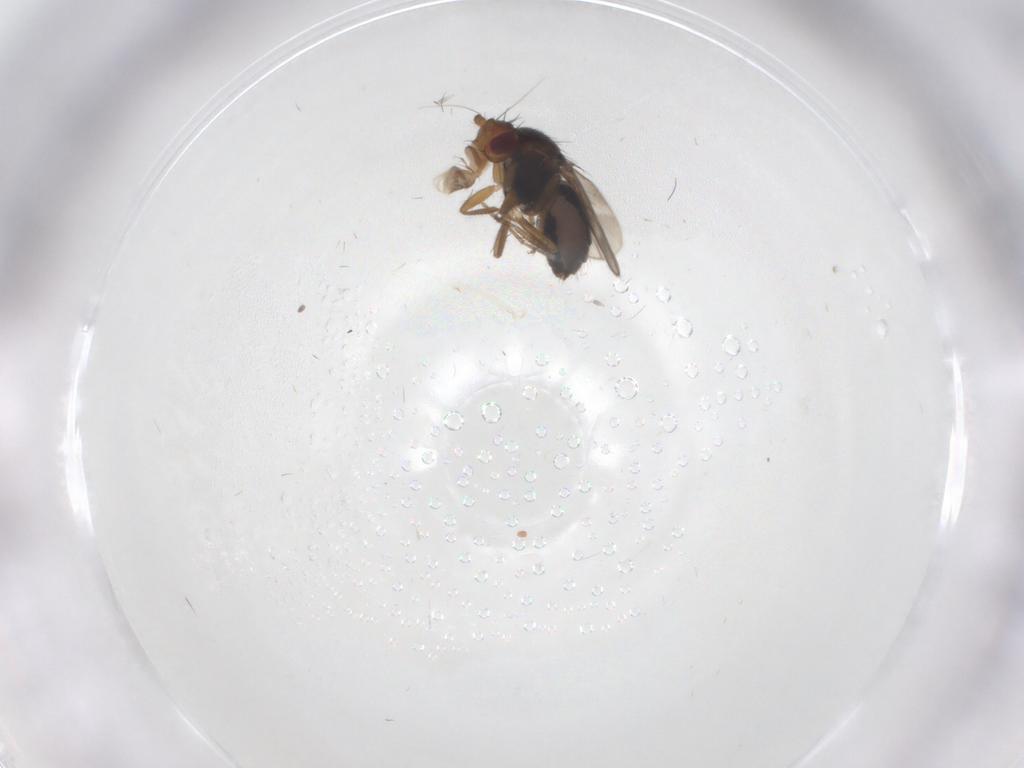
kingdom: Animalia
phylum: Arthropoda
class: Insecta
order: Diptera
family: Sphaeroceridae
